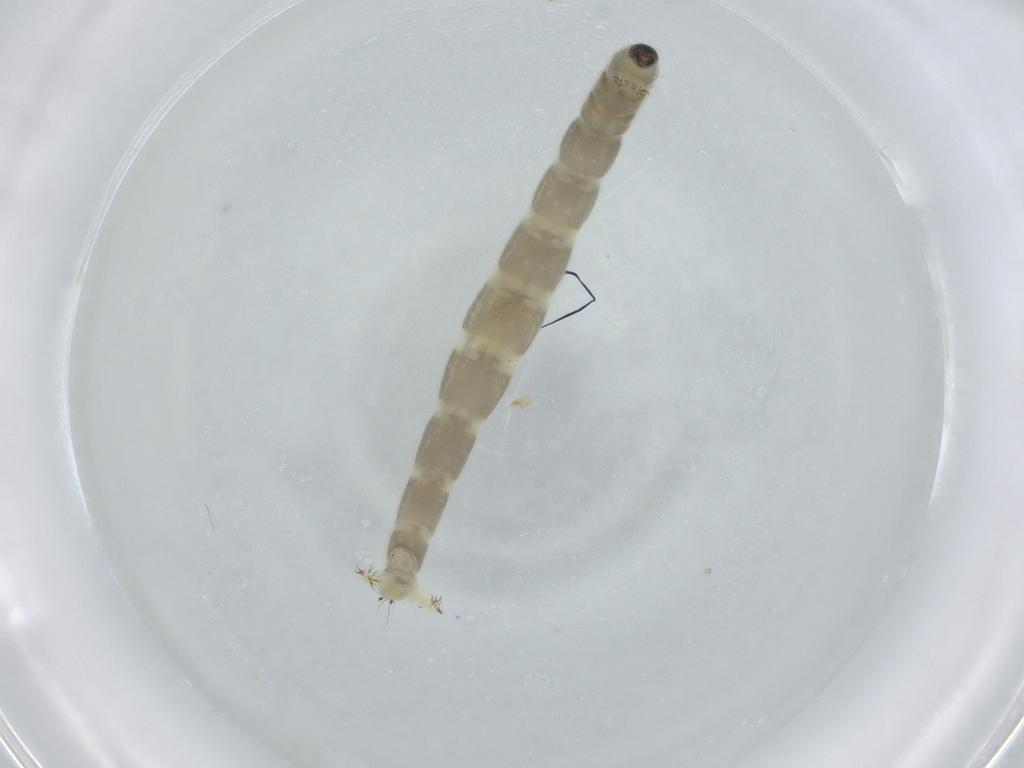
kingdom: Animalia
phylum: Arthropoda
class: Insecta
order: Diptera
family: Chironomidae
